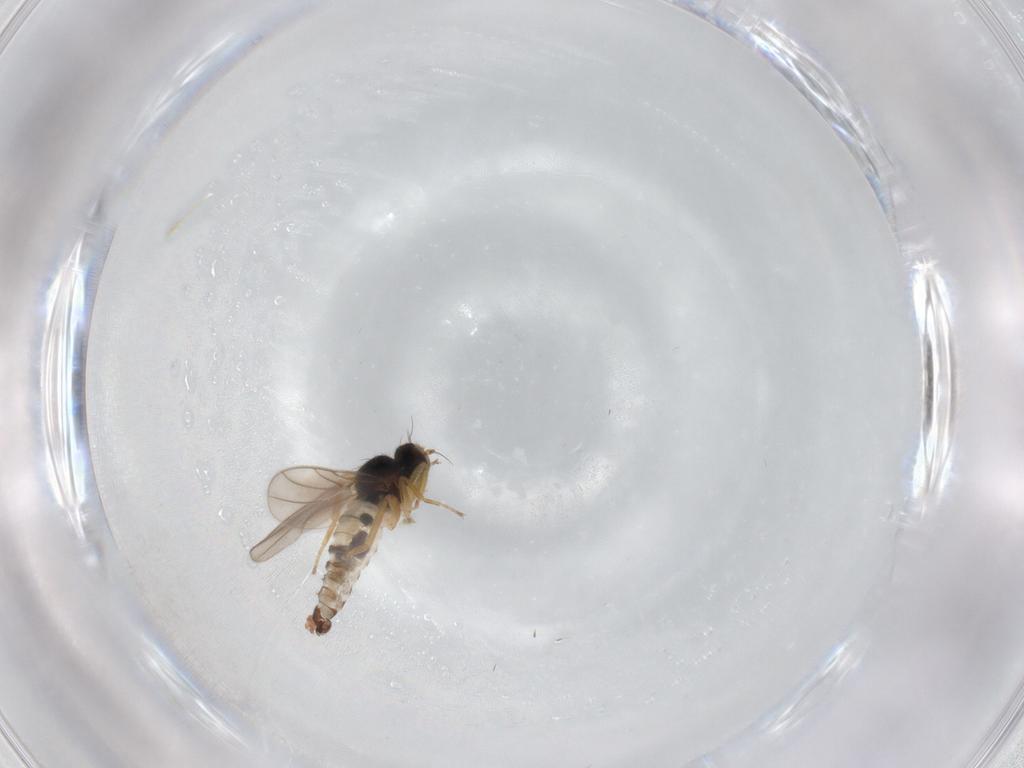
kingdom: Animalia
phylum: Arthropoda
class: Insecta
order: Diptera
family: Hybotidae
